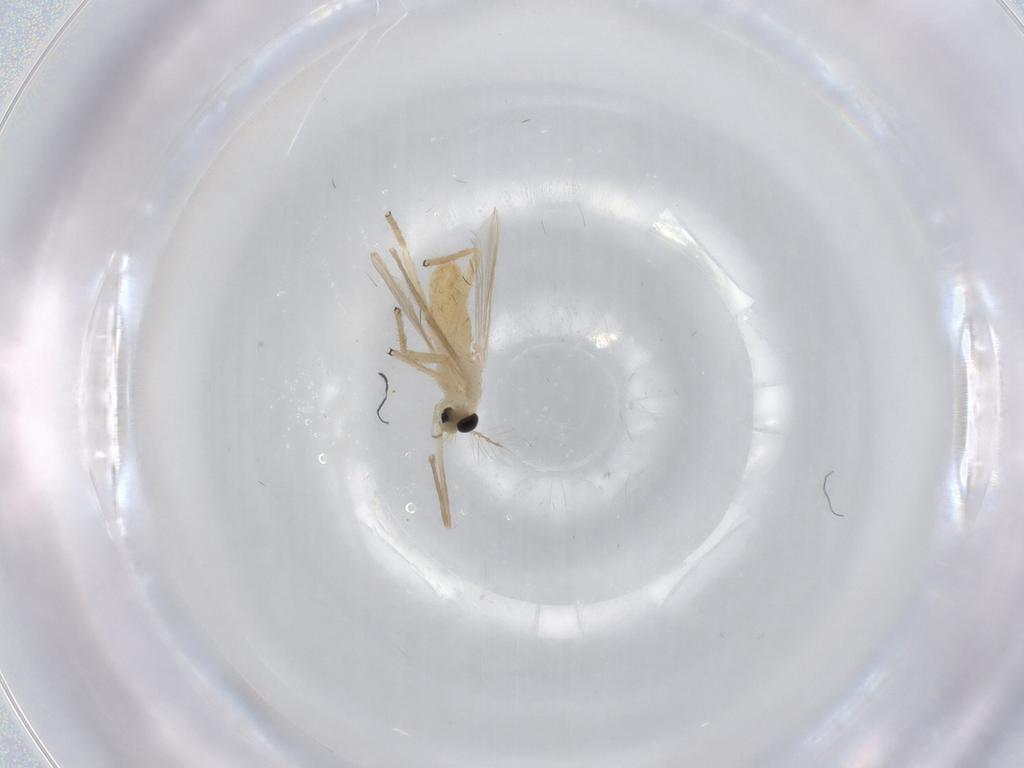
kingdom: Animalia
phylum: Arthropoda
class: Insecta
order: Diptera
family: Chironomidae
